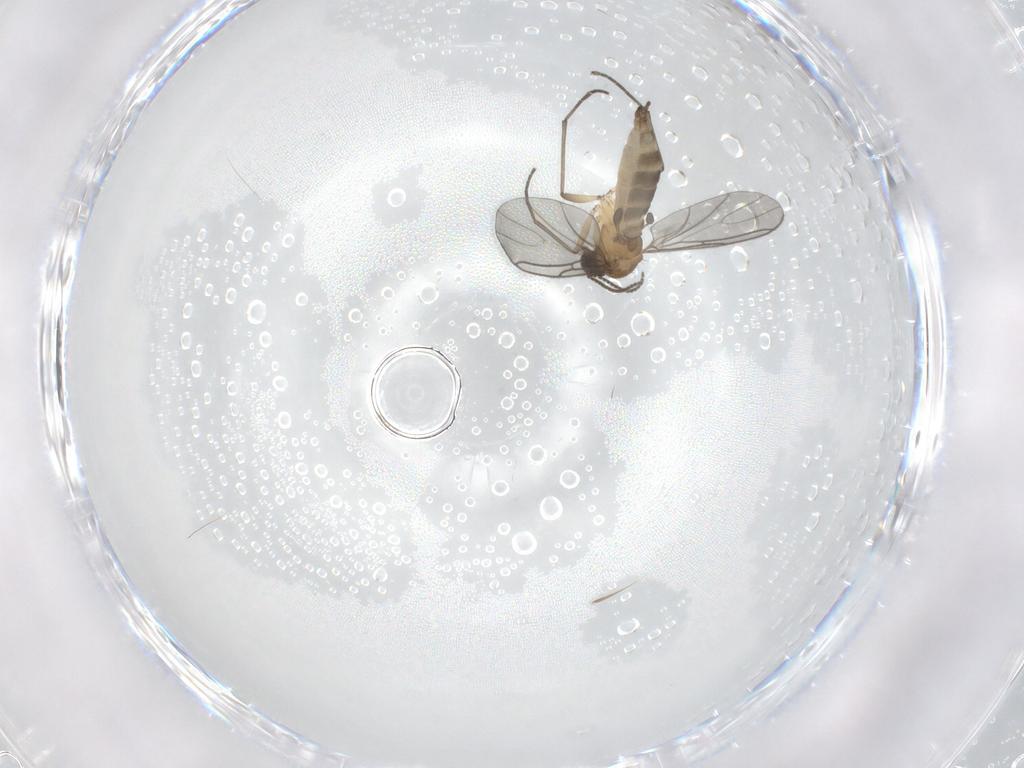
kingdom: Animalia
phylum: Arthropoda
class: Insecta
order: Diptera
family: Sciaridae
